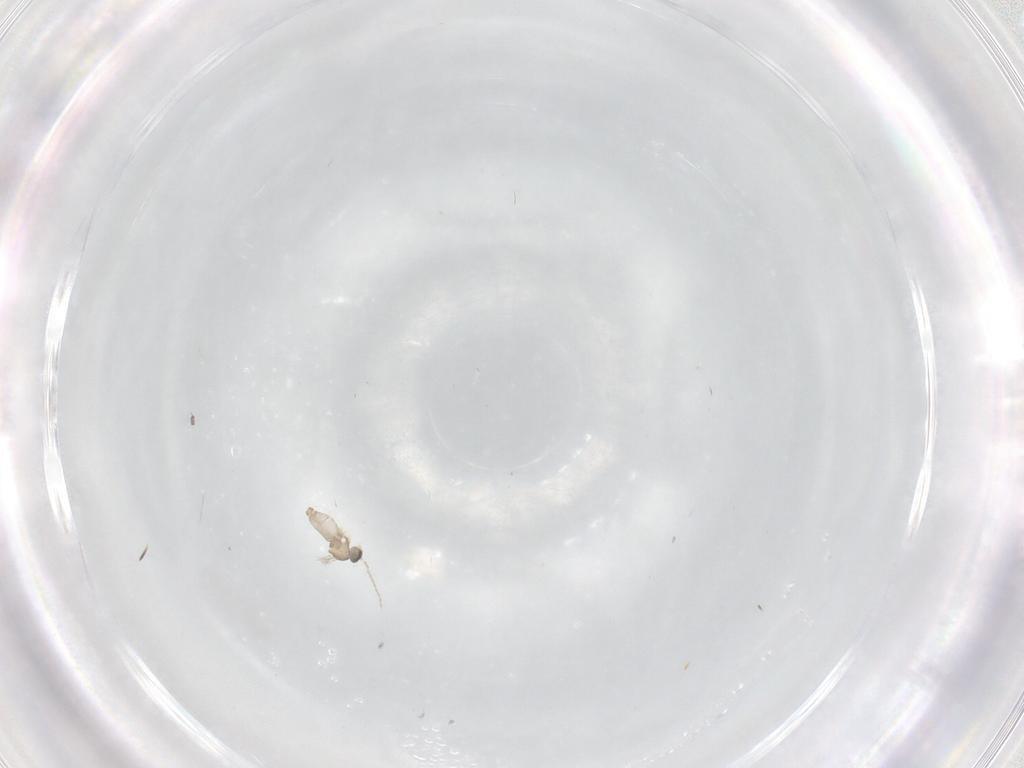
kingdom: Animalia
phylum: Arthropoda
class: Insecta
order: Diptera
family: Cecidomyiidae
